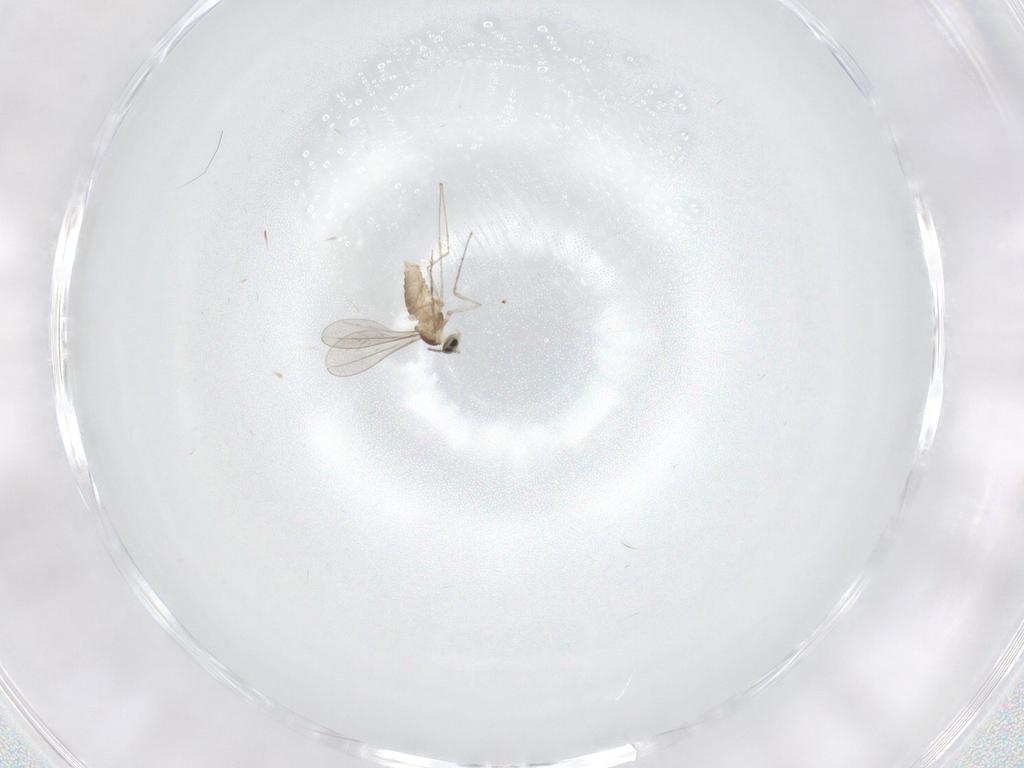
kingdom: Animalia
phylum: Arthropoda
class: Insecta
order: Diptera
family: Cecidomyiidae
